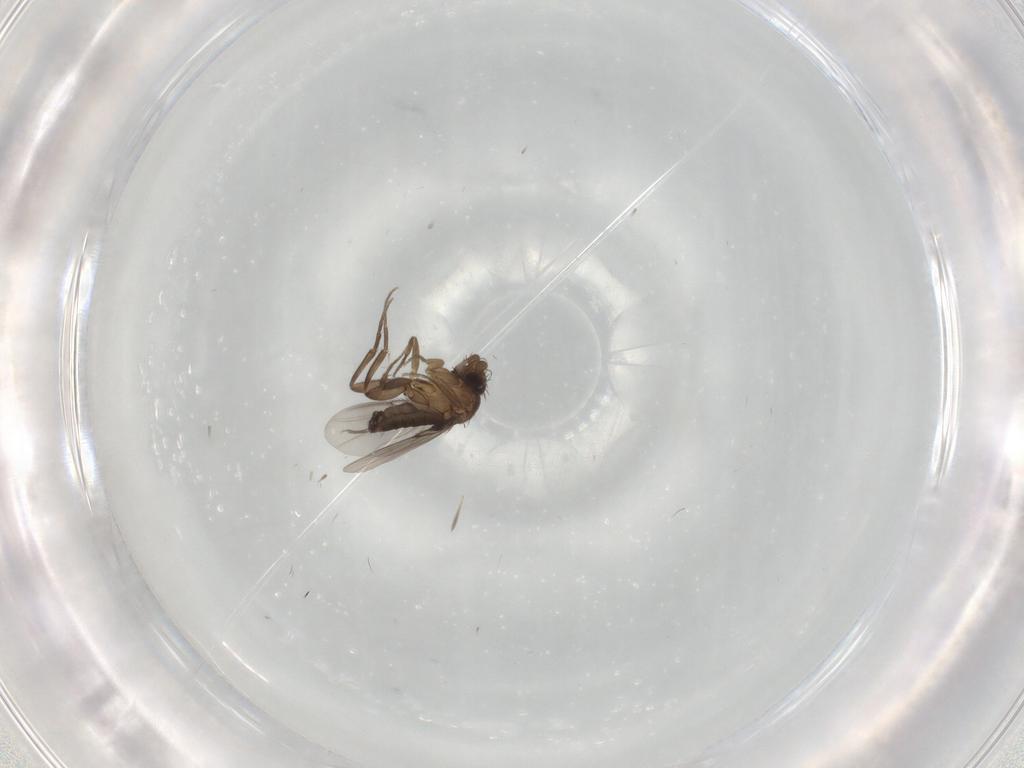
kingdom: Animalia
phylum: Arthropoda
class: Insecta
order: Diptera
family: Phoridae
